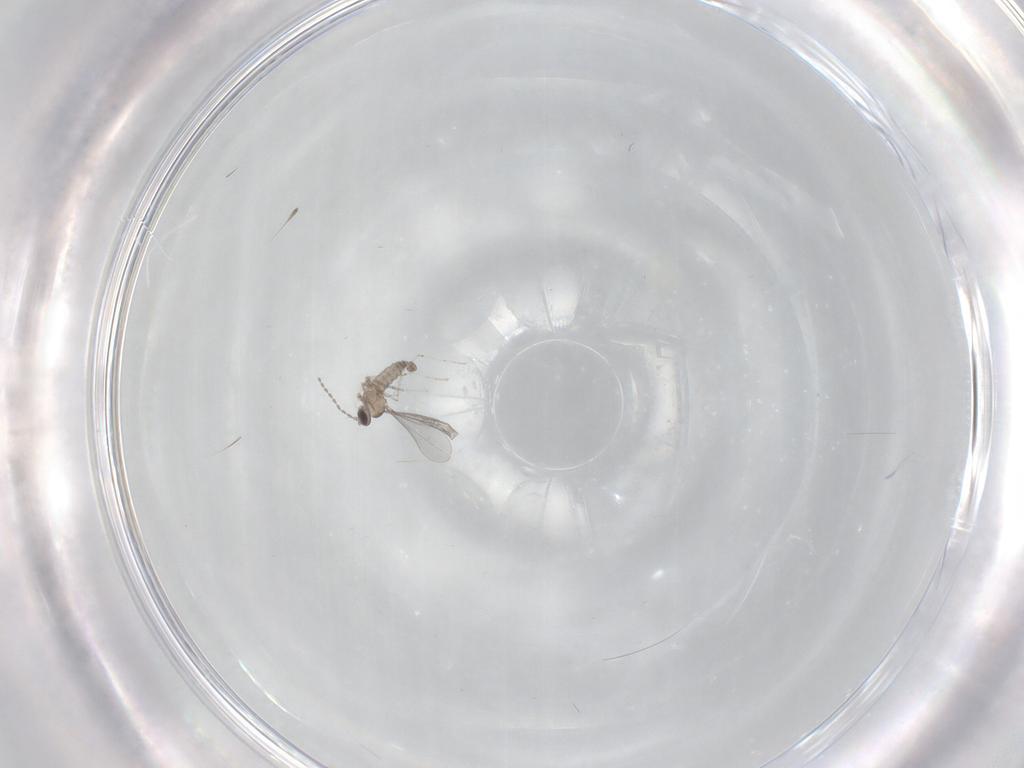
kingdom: Animalia
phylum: Arthropoda
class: Insecta
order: Diptera
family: Cecidomyiidae
